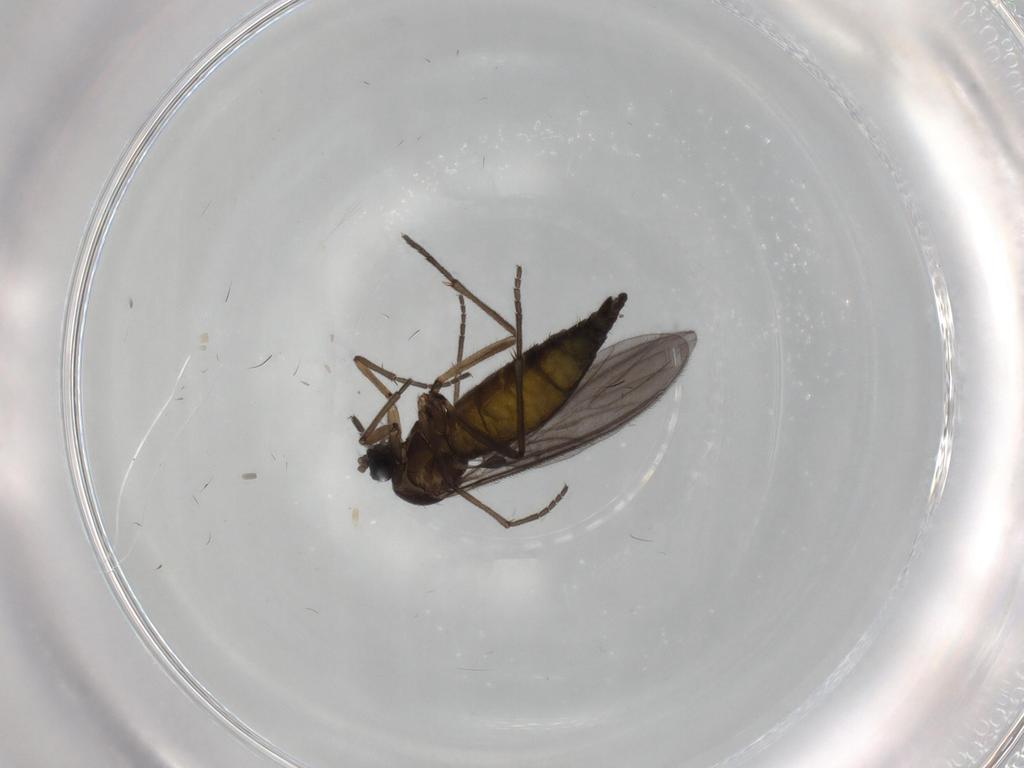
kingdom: Animalia
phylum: Arthropoda
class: Insecta
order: Diptera
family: Sciaridae
